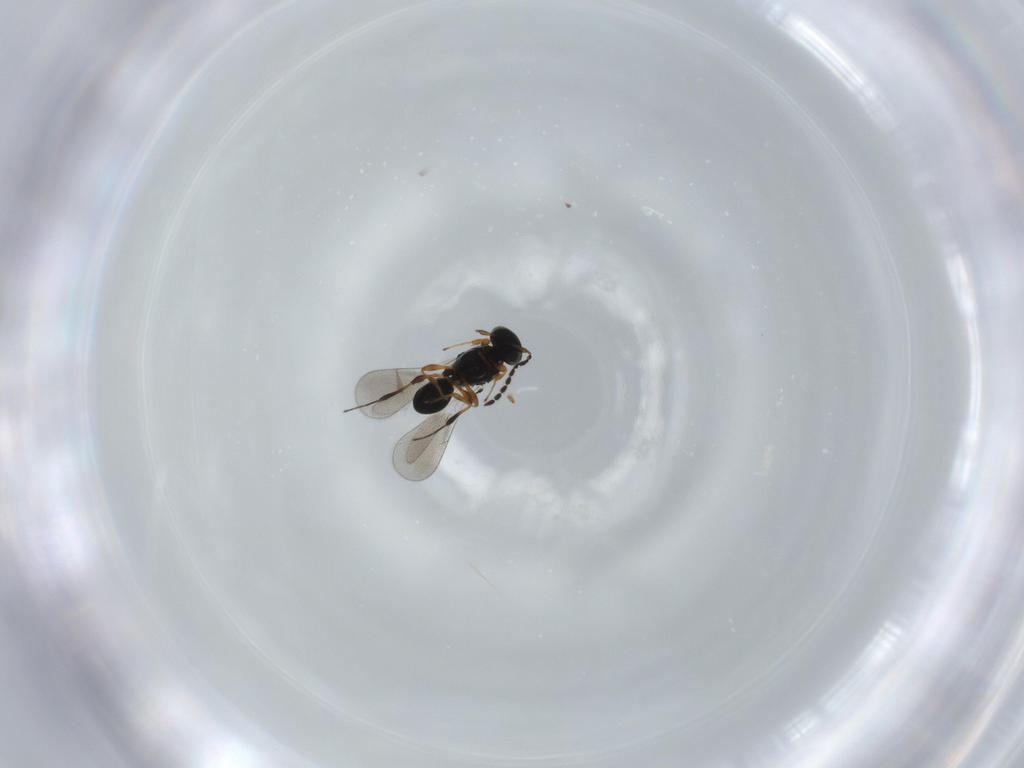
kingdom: Animalia
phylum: Arthropoda
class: Insecta
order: Hymenoptera
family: Platygastridae
